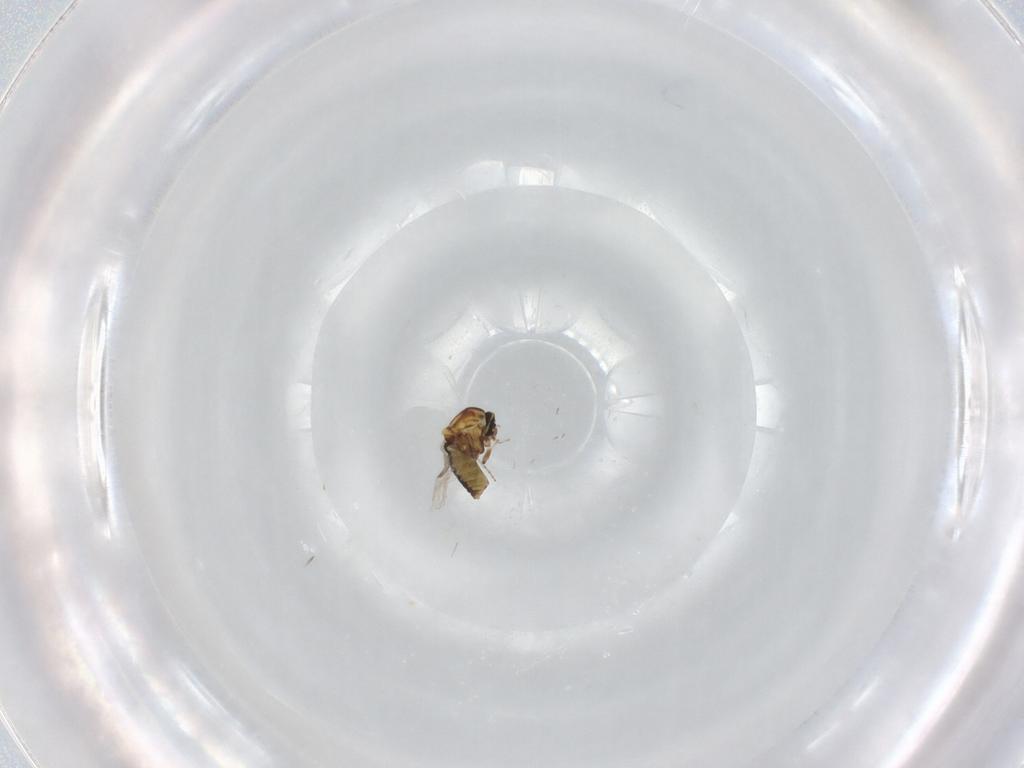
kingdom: Animalia
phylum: Arthropoda
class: Insecta
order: Diptera
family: Ceratopogonidae
